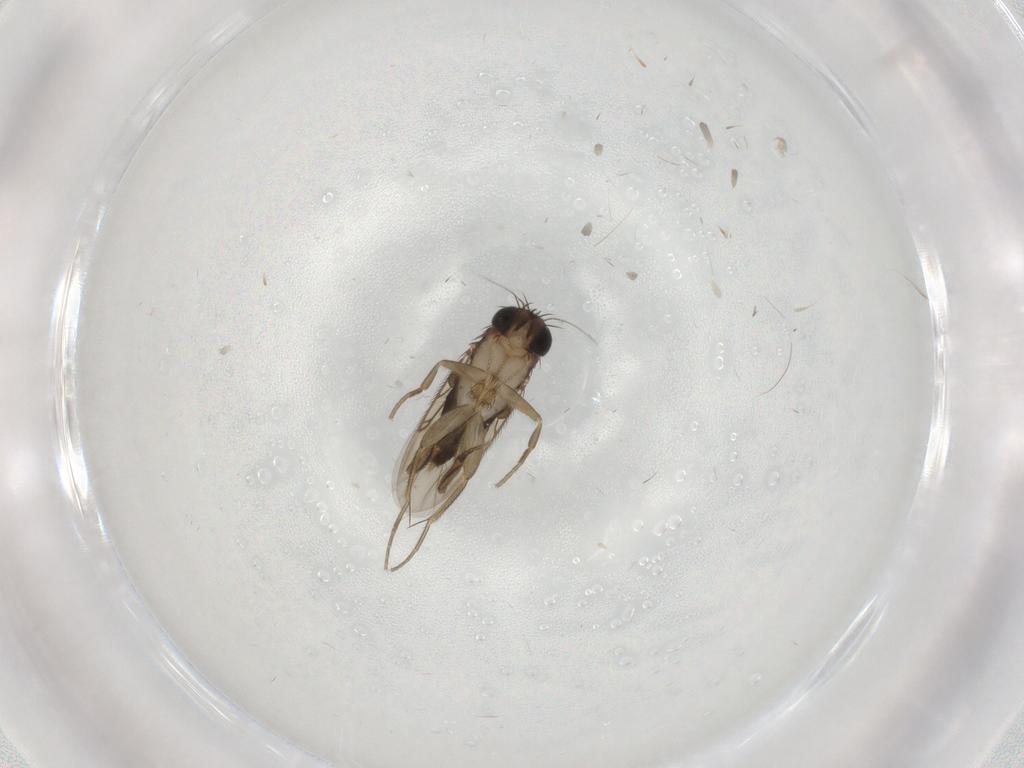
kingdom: Animalia
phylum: Arthropoda
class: Insecta
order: Diptera
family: Phoridae
